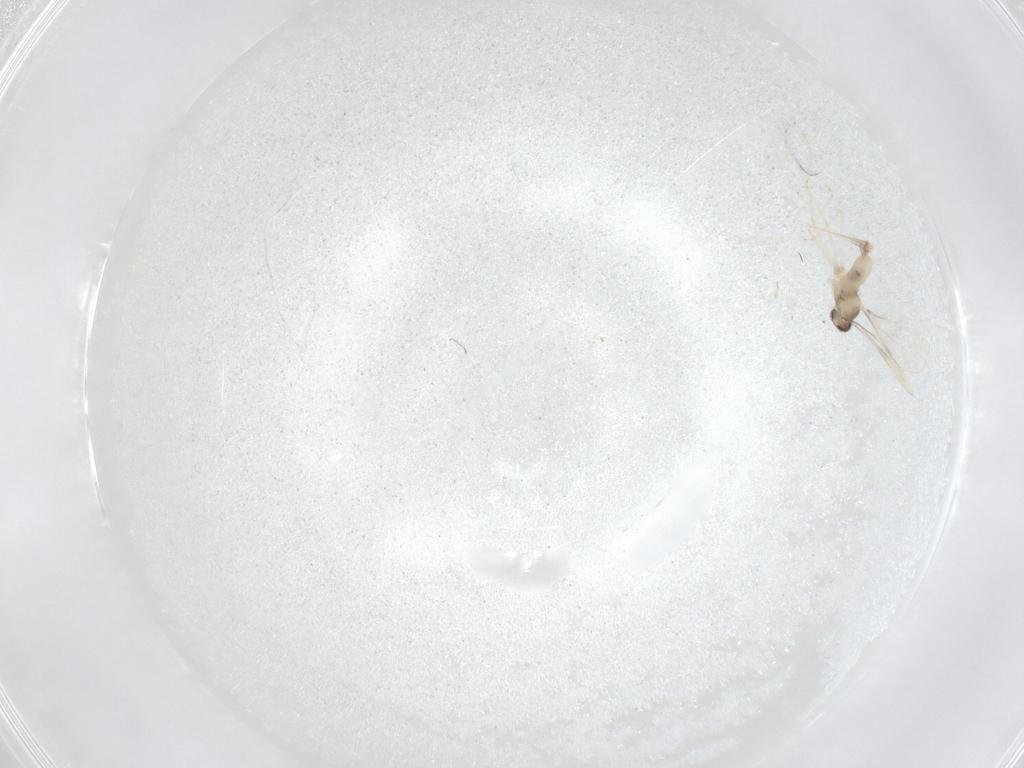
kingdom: Animalia
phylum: Arthropoda
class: Insecta
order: Diptera
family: Cecidomyiidae
